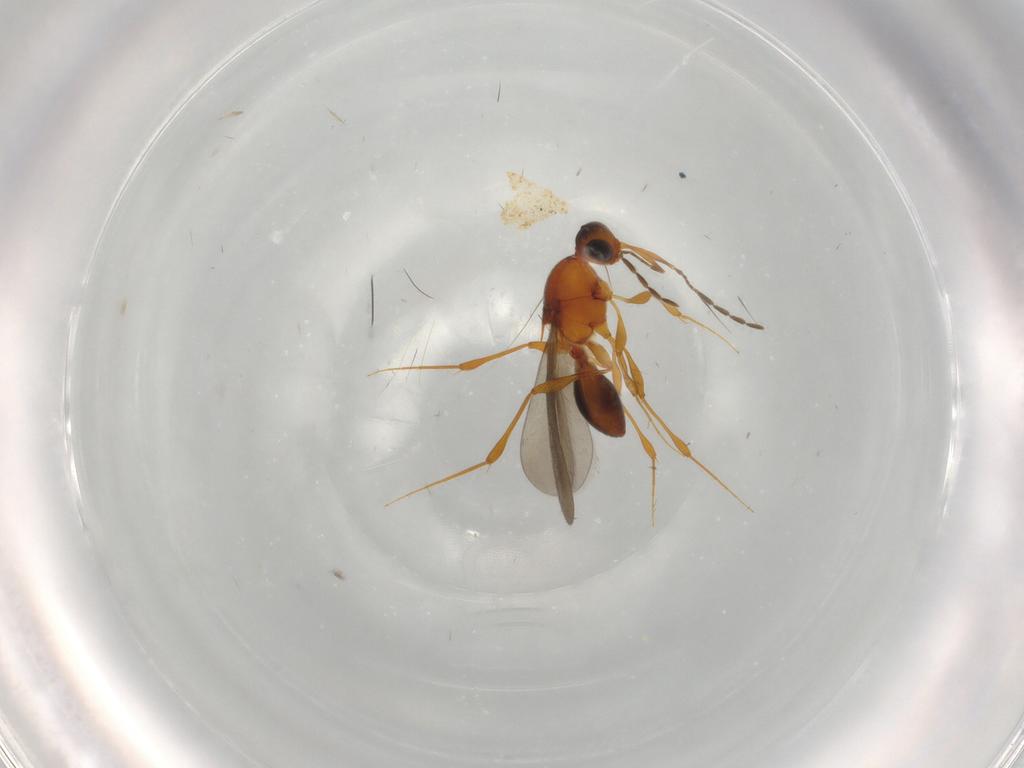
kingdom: Animalia
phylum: Arthropoda
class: Insecta
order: Hymenoptera
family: Platygastridae
